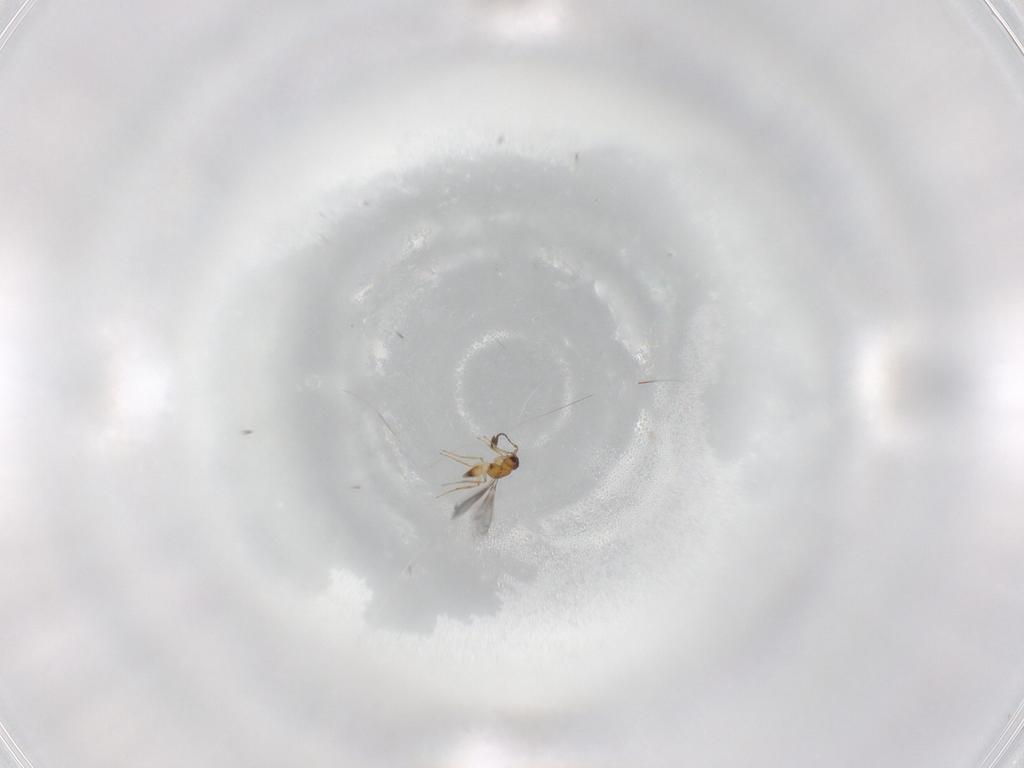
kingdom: Animalia
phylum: Arthropoda
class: Insecta
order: Hymenoptera
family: Mymaridae
